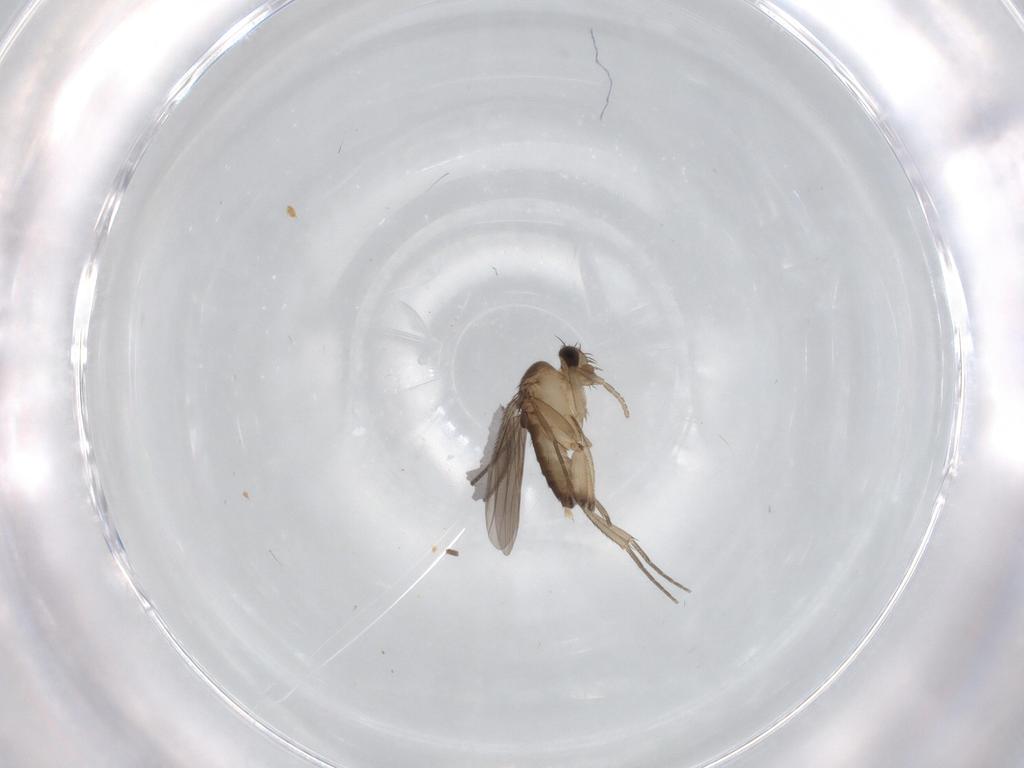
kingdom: Animalia
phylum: Arthropoda
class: Insecta
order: Diptera
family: Phoridae
